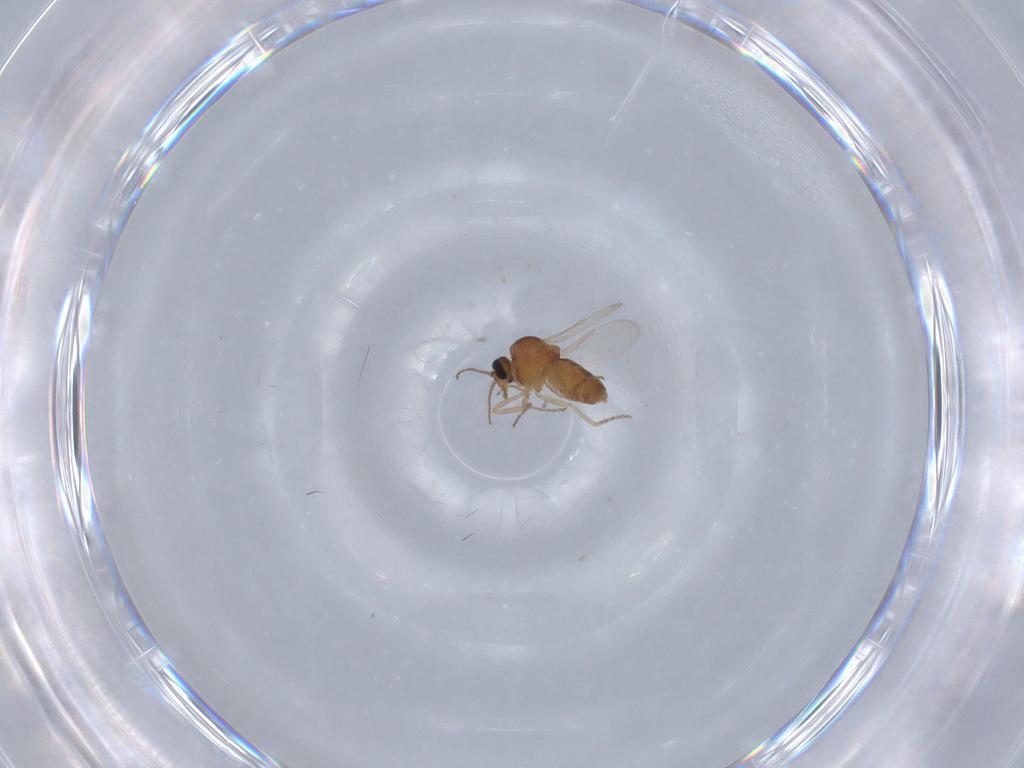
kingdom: Animalia
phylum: Arthropoda
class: Insecta
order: Diptera
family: Ceratopogonidae
